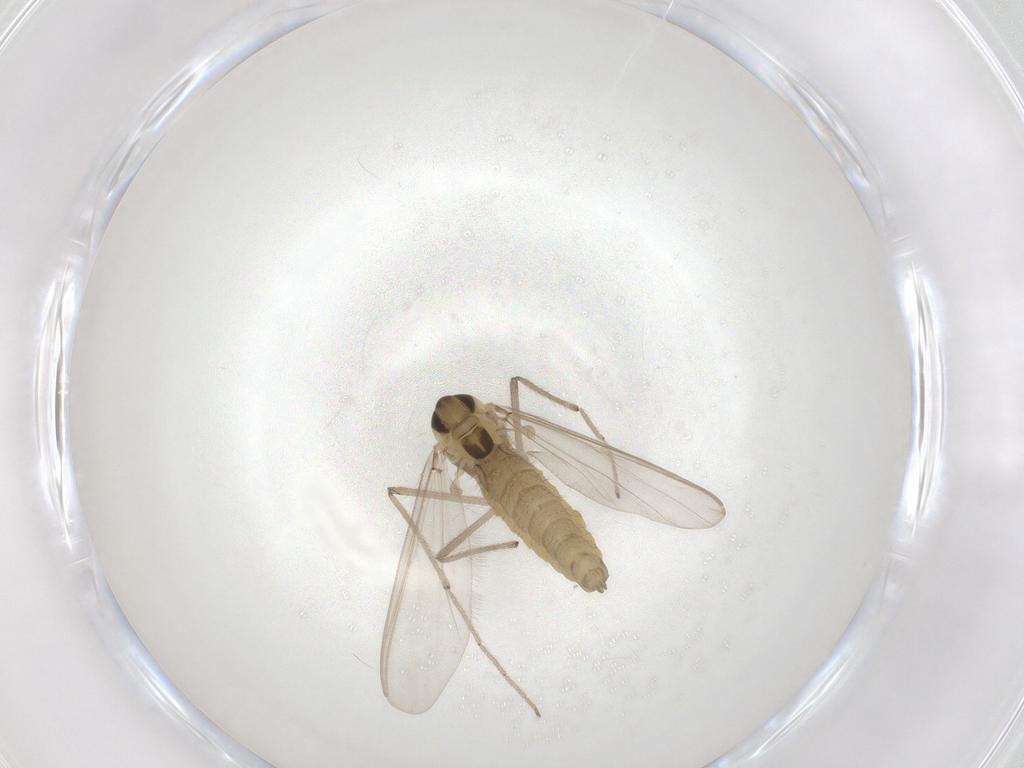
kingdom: Animalia
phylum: Arthropoda
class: Insecta
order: Diptera
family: Chironomidae
